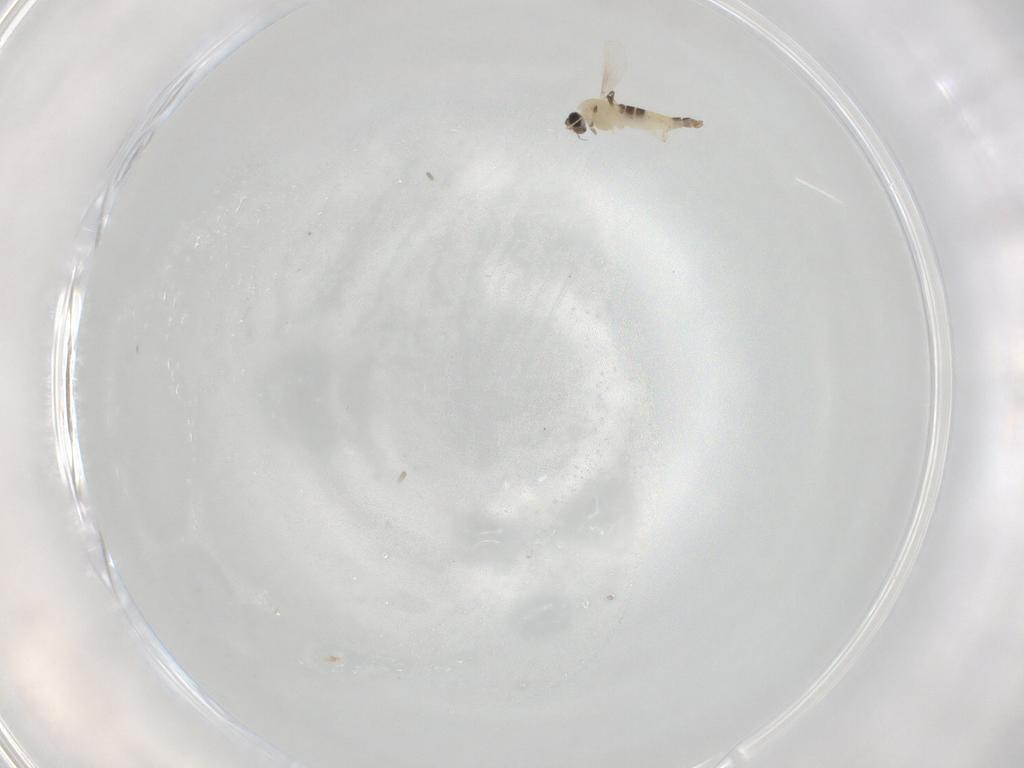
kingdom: Animalia
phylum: Arthropoda
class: Insecta
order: Diptera
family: Chironomidae
